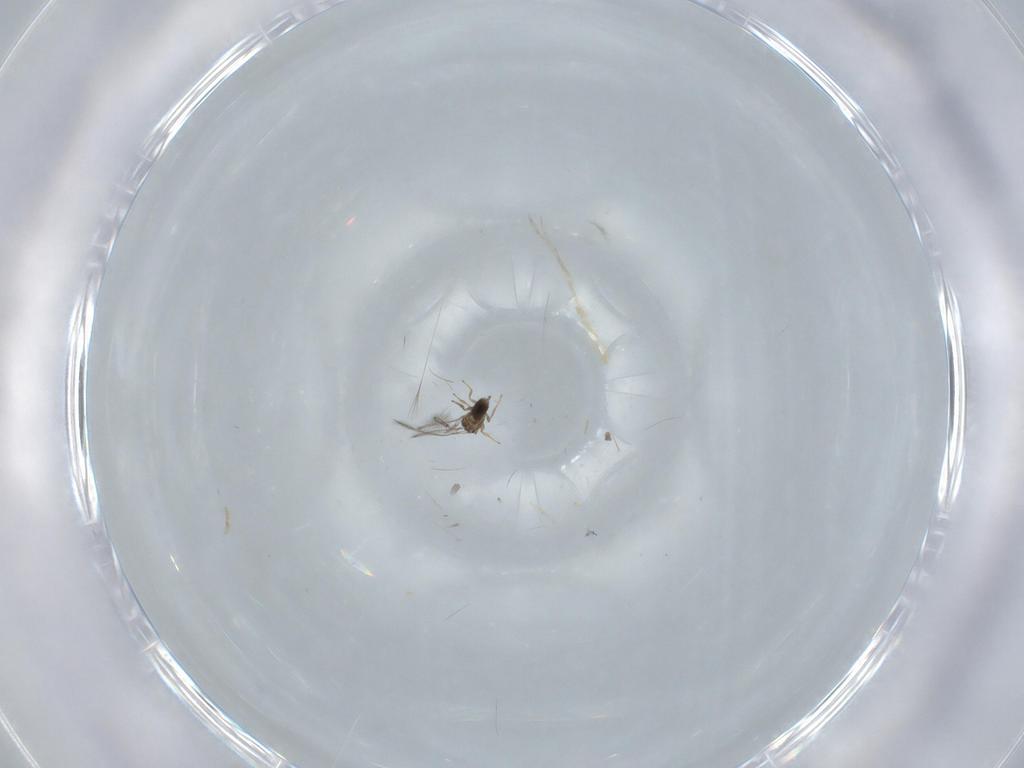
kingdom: Animalia
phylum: Arthropoda
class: Insecta
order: Hymenoptera
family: Mymaridae
